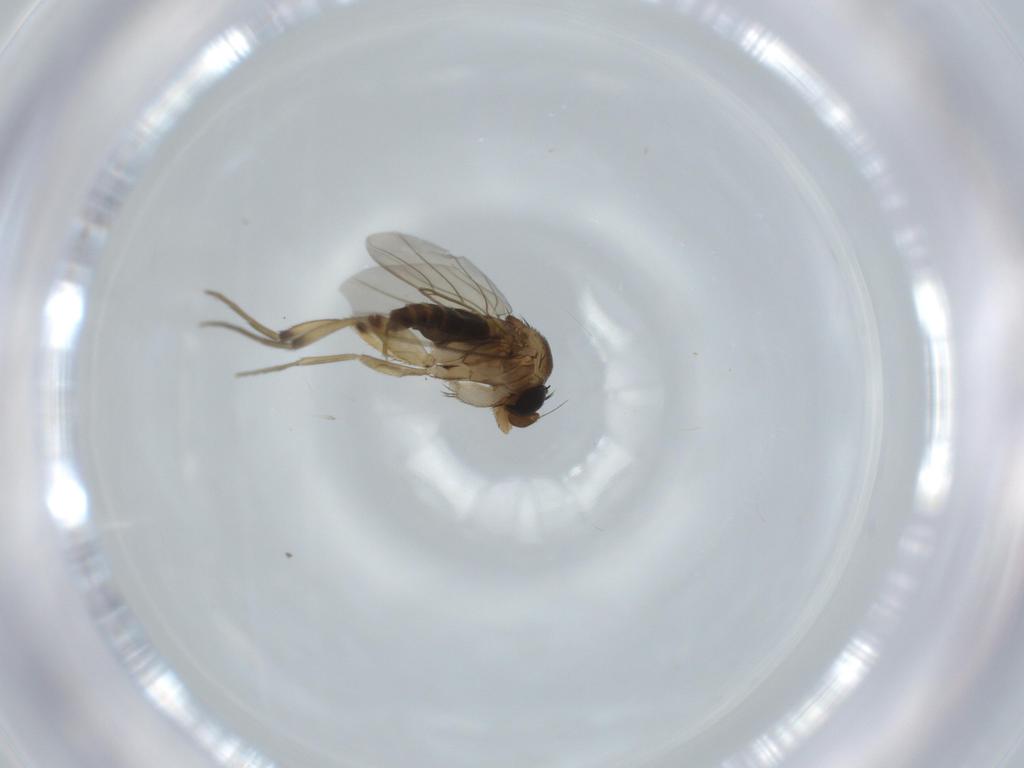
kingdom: Animalia
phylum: Arthropoda
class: Insecta
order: Diptera
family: Phoridae
